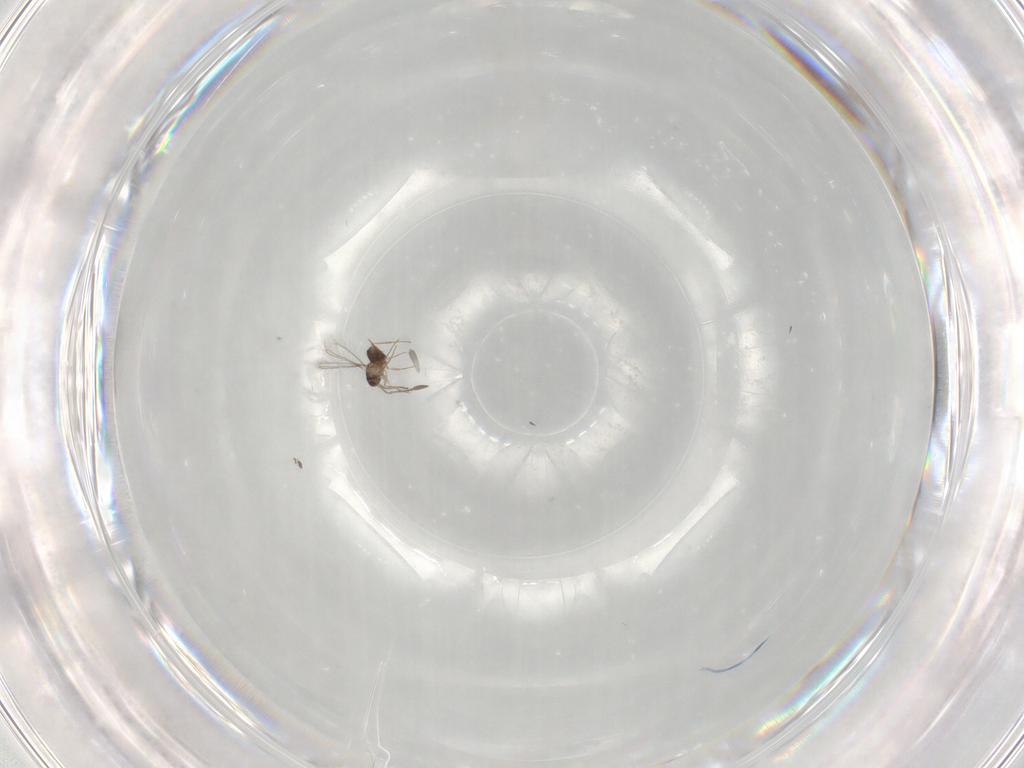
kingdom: Animalia
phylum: Arthropoda
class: Insecta
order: Hymenoptera
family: Mymaridae
